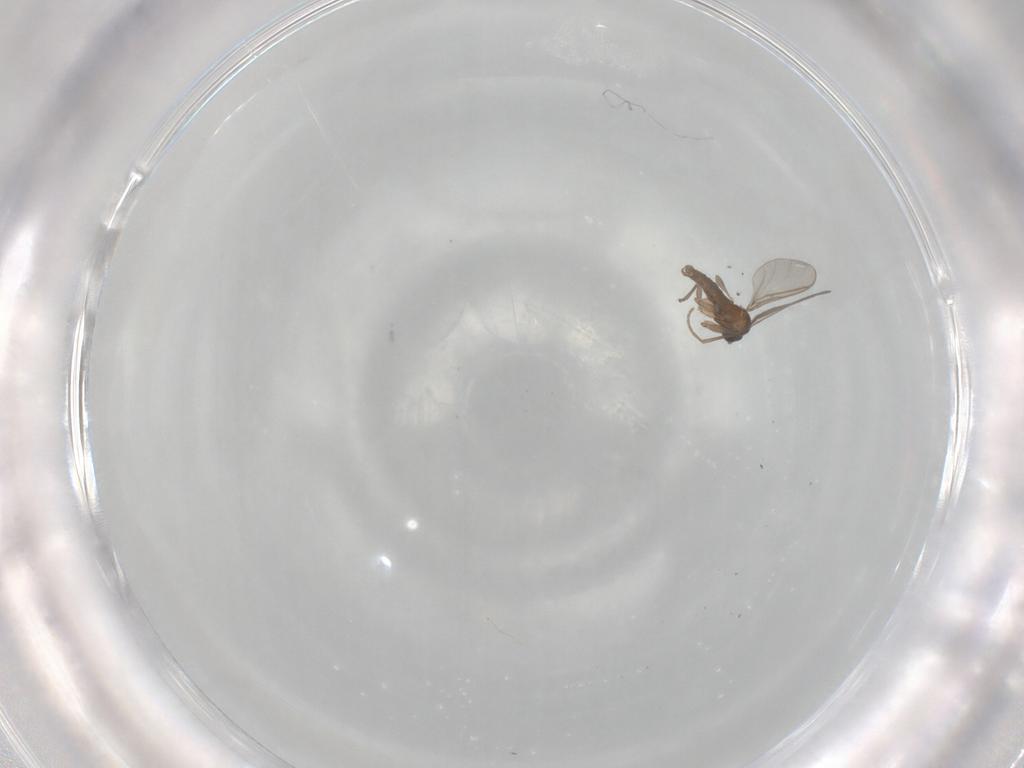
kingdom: Animalia
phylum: Arthropoda
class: Insecta
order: Diptera
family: Sciaridae
